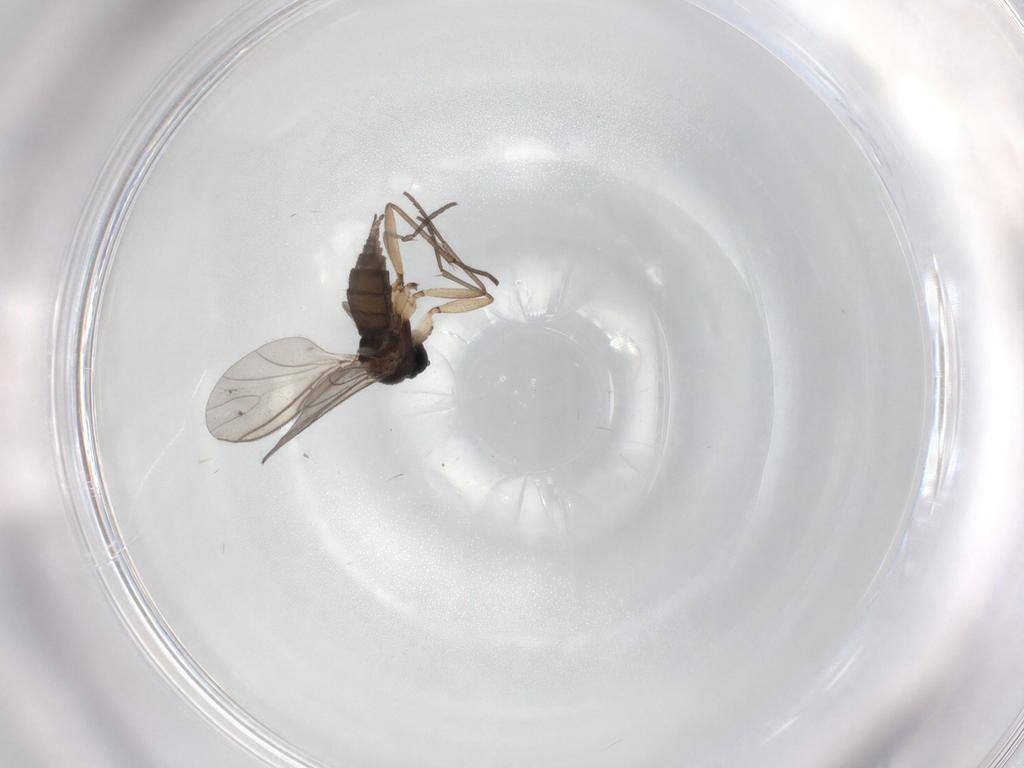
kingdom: Animalia
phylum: Arthropoda
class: Insecta
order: Diptera
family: Sciaridae
